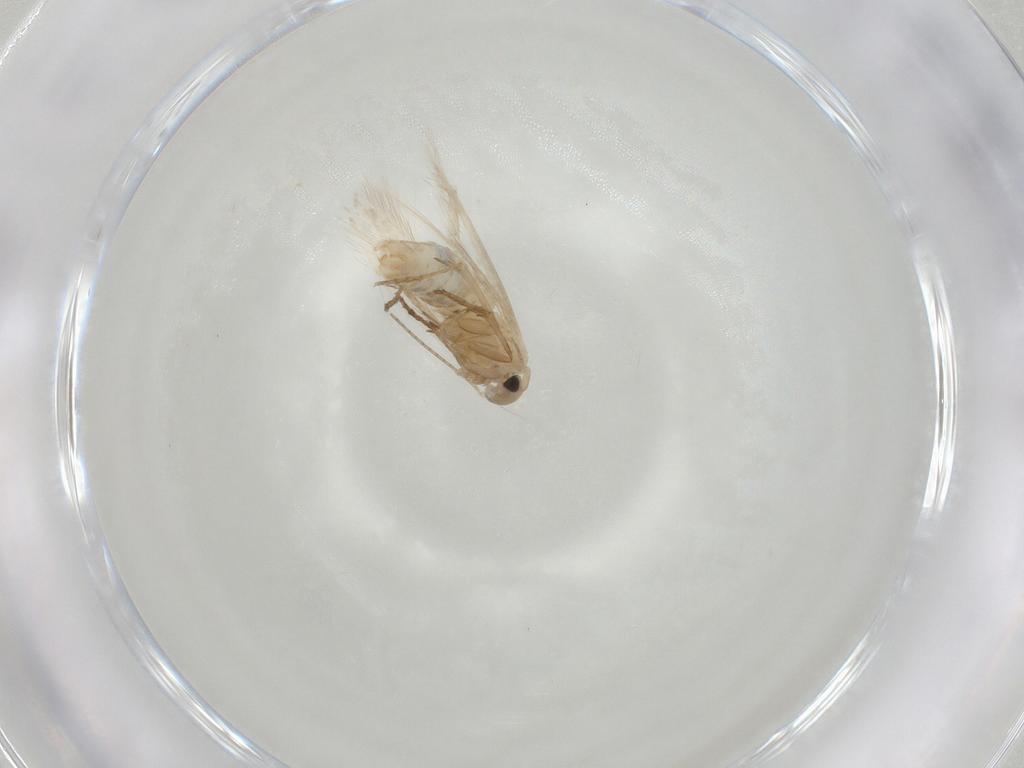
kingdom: Animalia
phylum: Arthropoda
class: Insecta
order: Lepidoptera
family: Bucculatricidae
